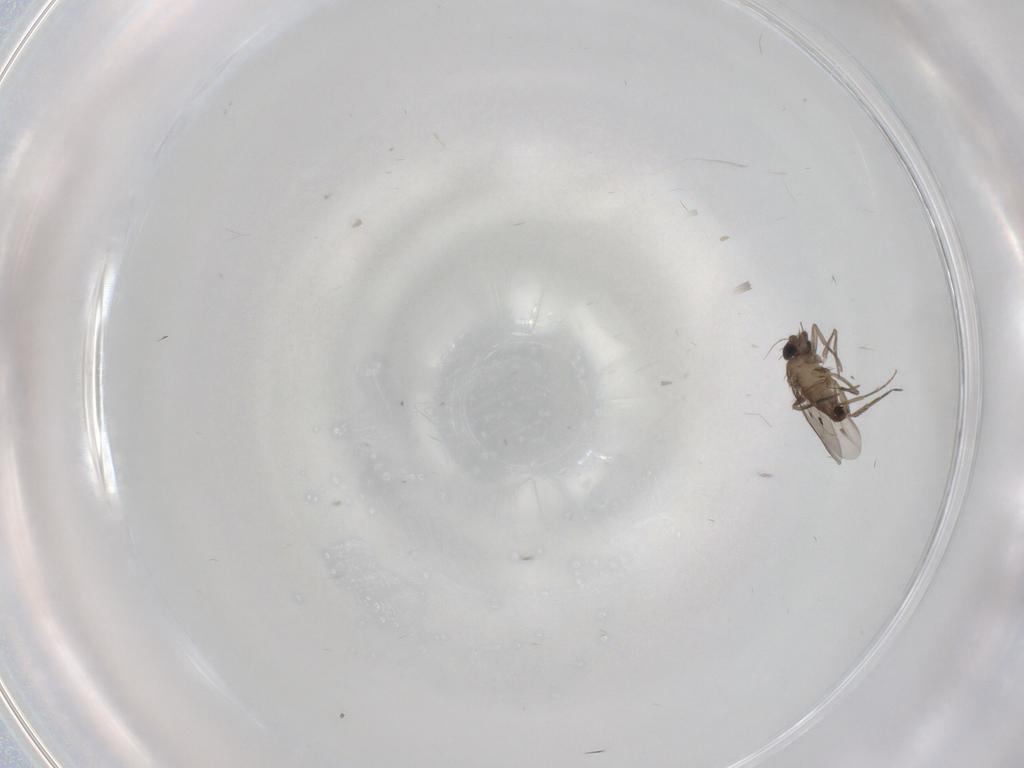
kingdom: Animalia
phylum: Arthropoda
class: Insecta
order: Diptera
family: Phoridae
